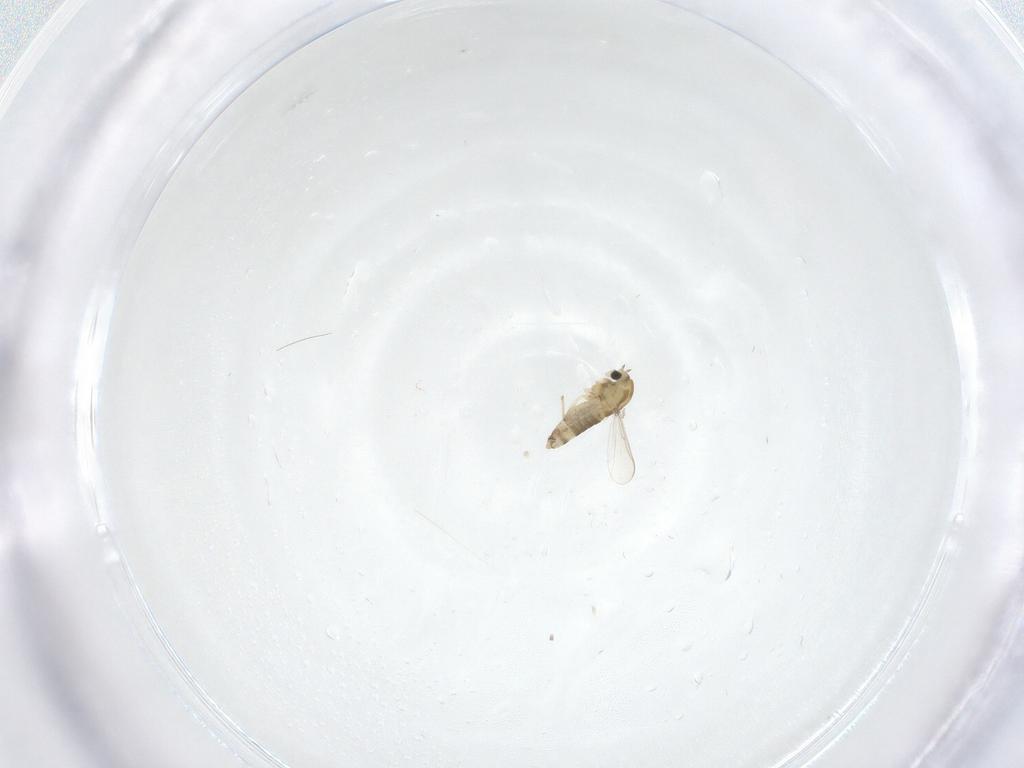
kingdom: Animalia
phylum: Arthropoda
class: Insecta
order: Diptera
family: Chironomidae
